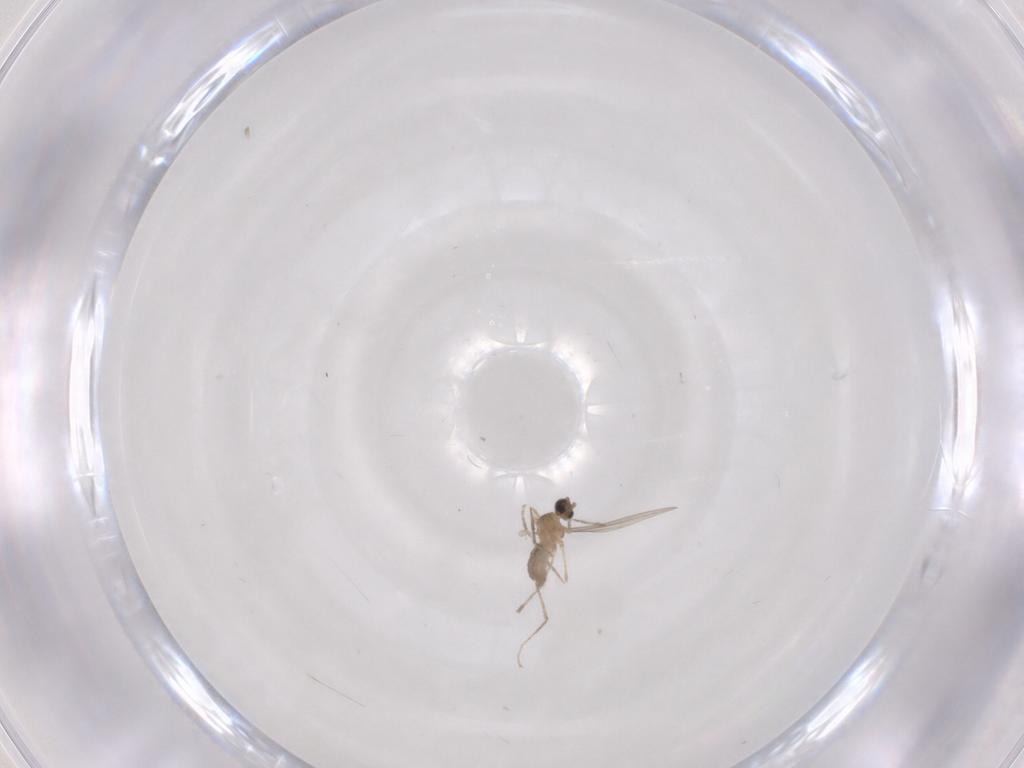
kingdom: Animalia
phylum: Arthropoda
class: Insecta
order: Diptera
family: Cecidomyiidae
